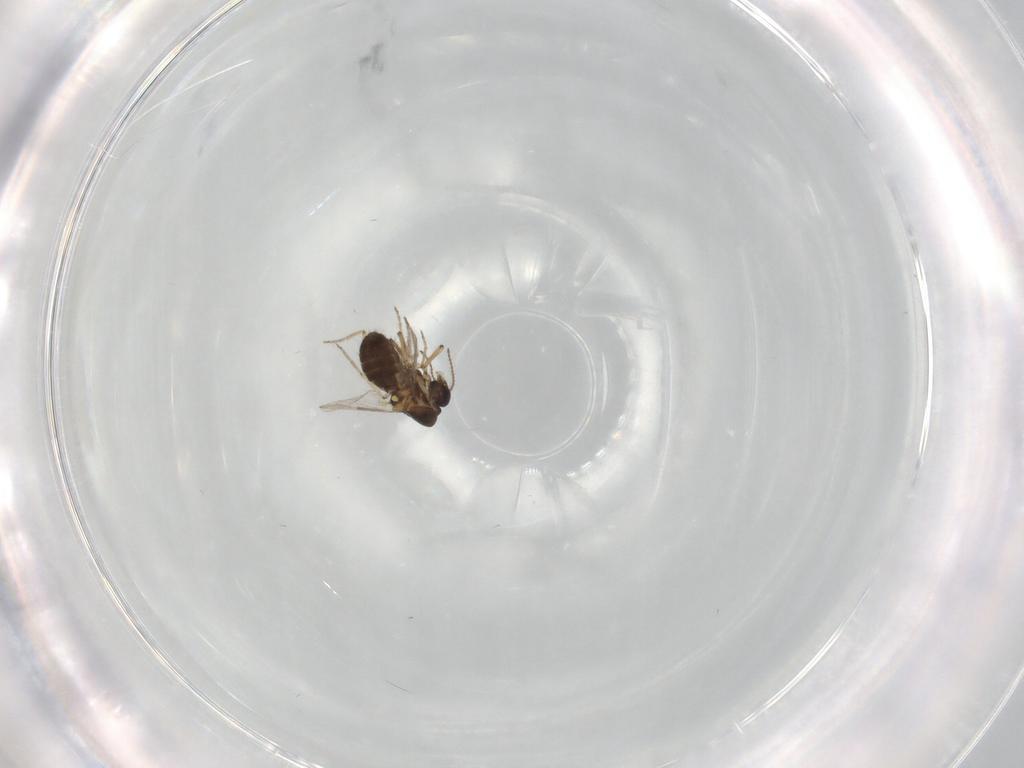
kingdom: Animalia
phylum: Arthropoda
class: Insecta
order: Diptera
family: Ceratopogonidae
